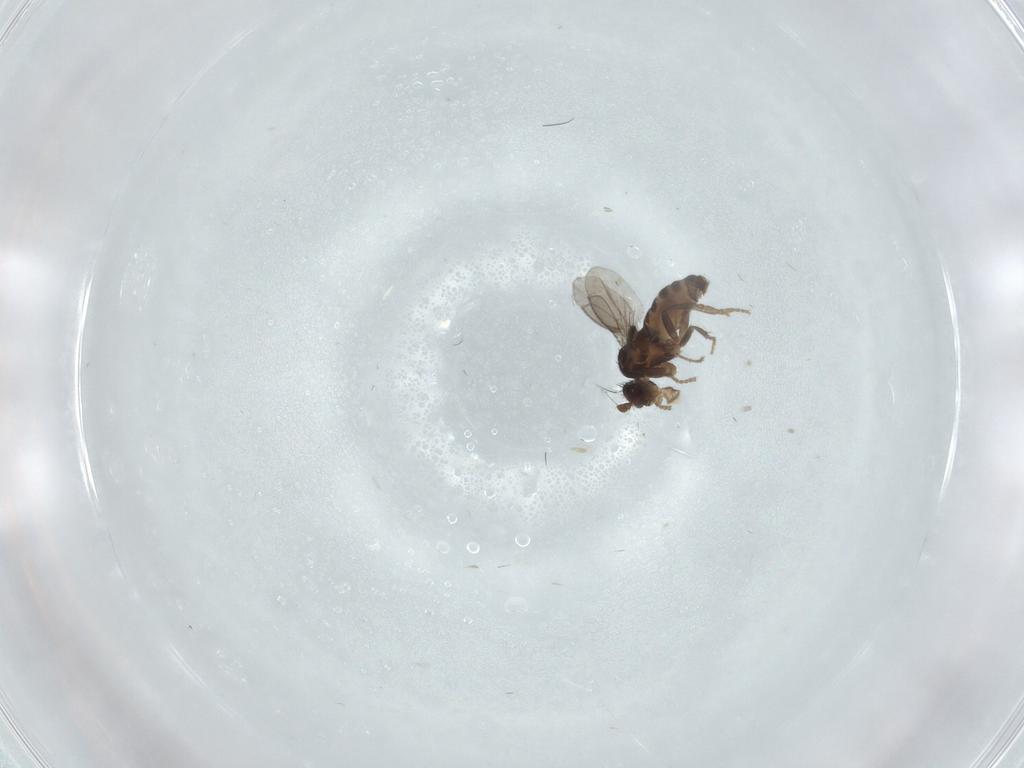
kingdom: Animalia
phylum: Arthropoda
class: Insecta
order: Diptera
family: Sphaeroceridae
